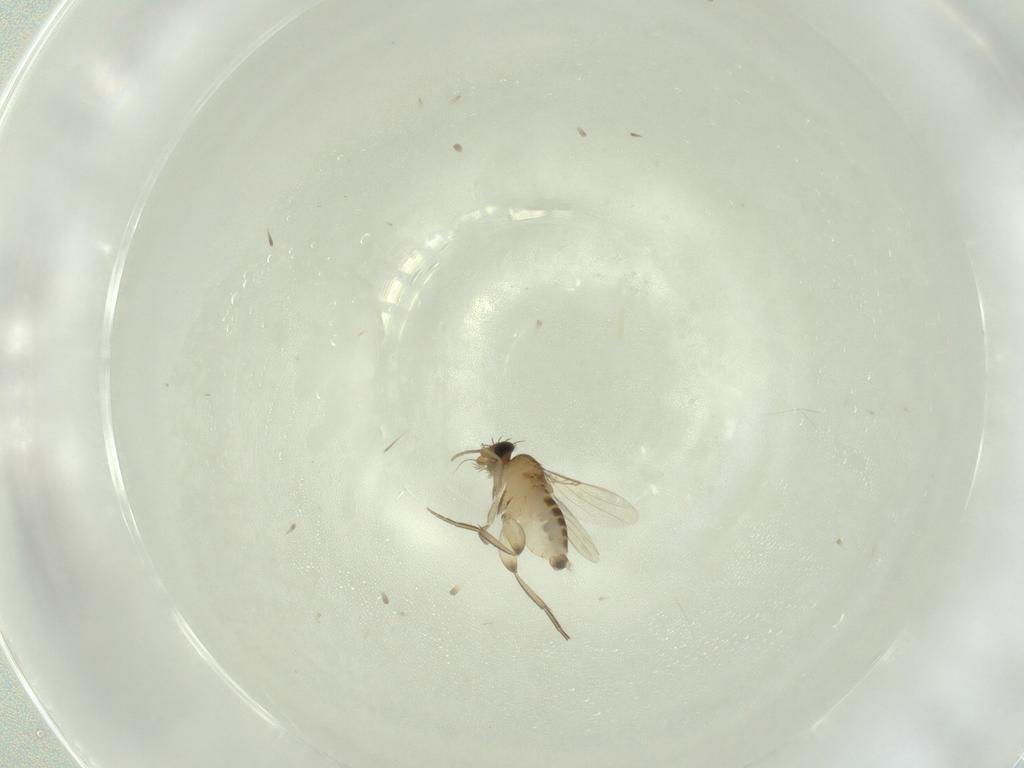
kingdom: Animalia
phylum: Arthropoda
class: Insecta
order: Diptera
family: Phoridae
